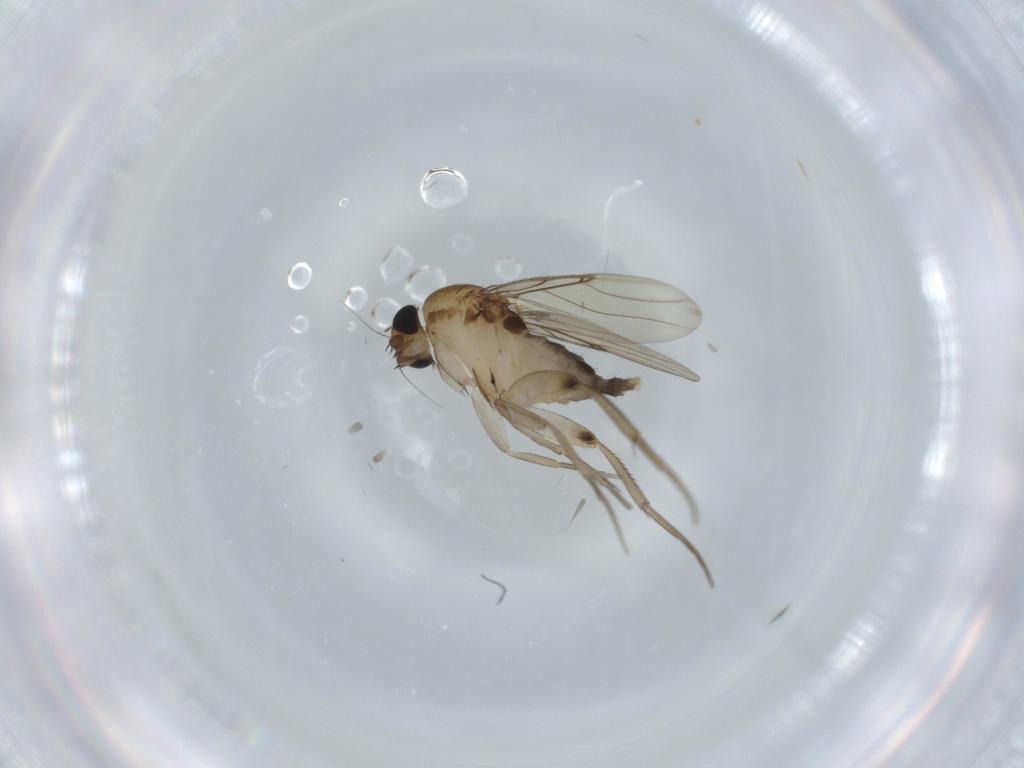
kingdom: Animalia
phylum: Arthropoda
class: Insecta
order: Diptera
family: Phoridae
